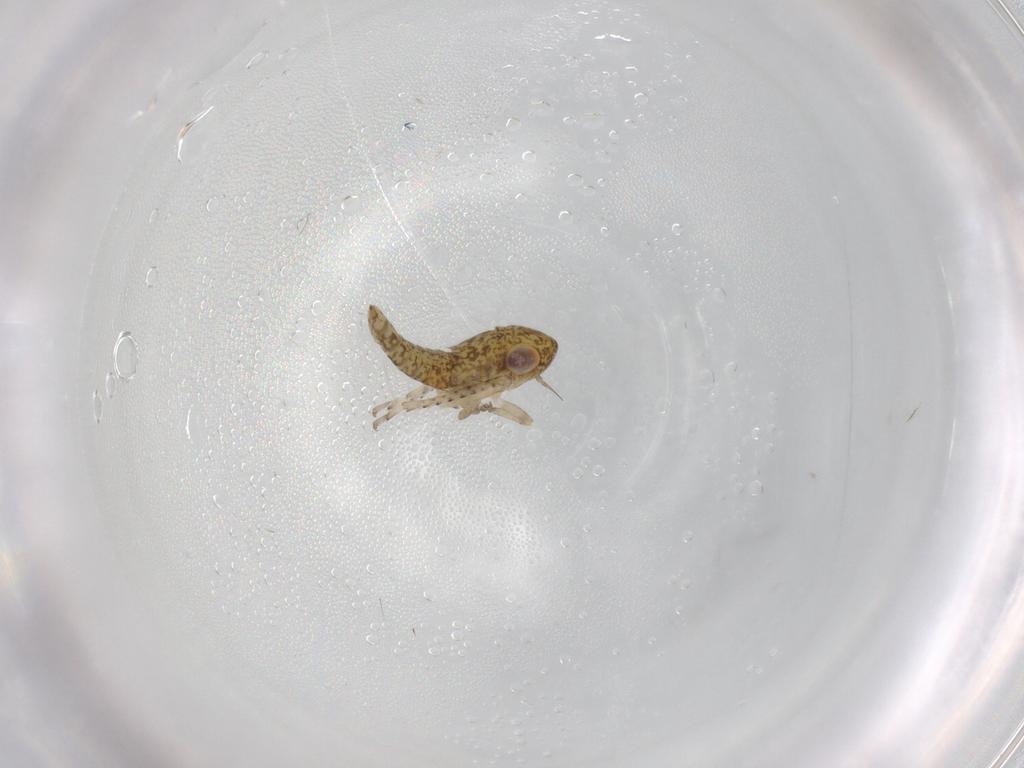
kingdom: Animalia
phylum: Arthropoda
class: Insecta
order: Hemiptera
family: Cicadellidae
